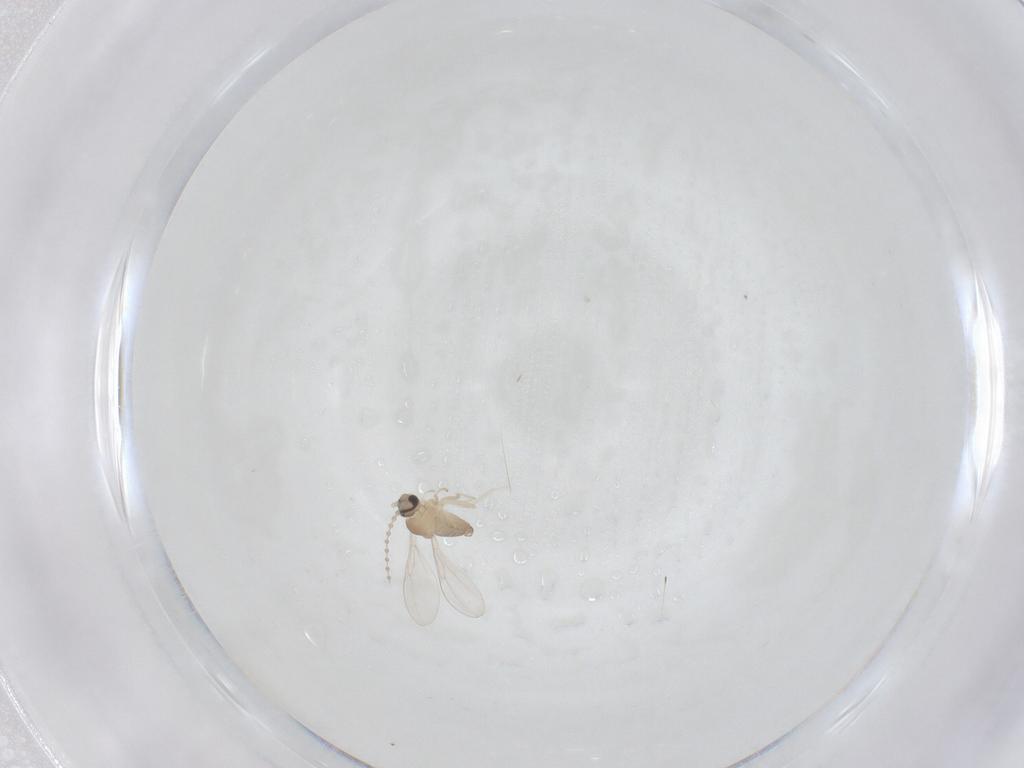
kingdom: Animalia
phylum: Arthropoda
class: Insecta
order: Diptera
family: Cecidomyiidae
